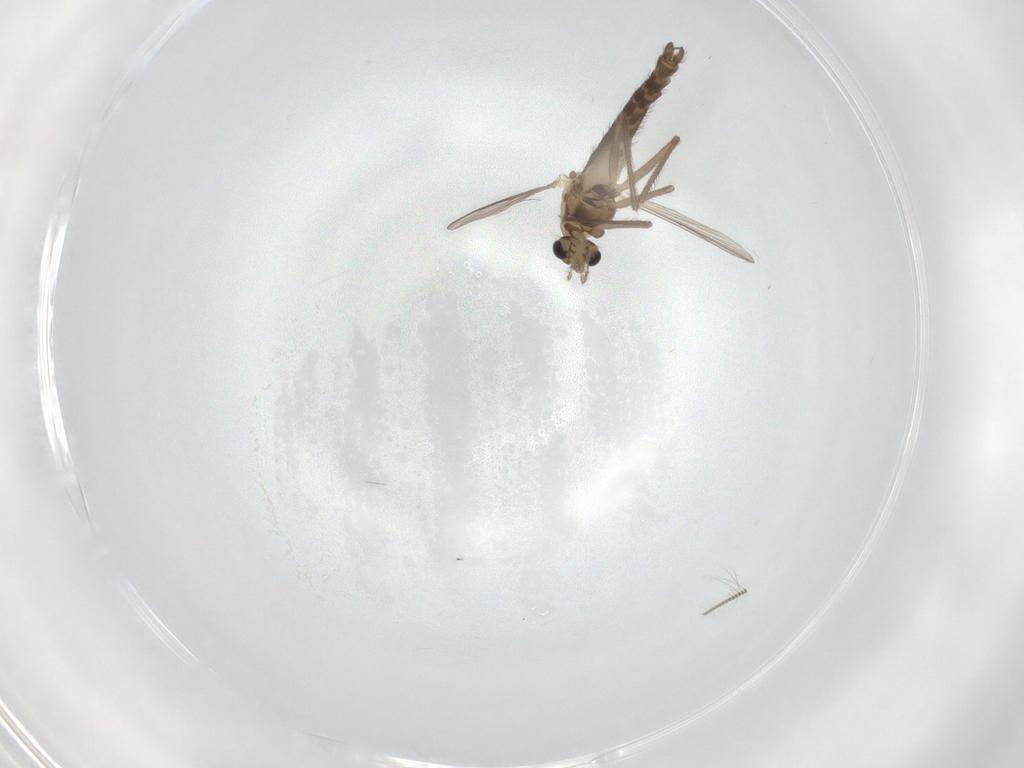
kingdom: Animalia
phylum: Arthropoda
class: Insecta
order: Diptera
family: Chironomidae
